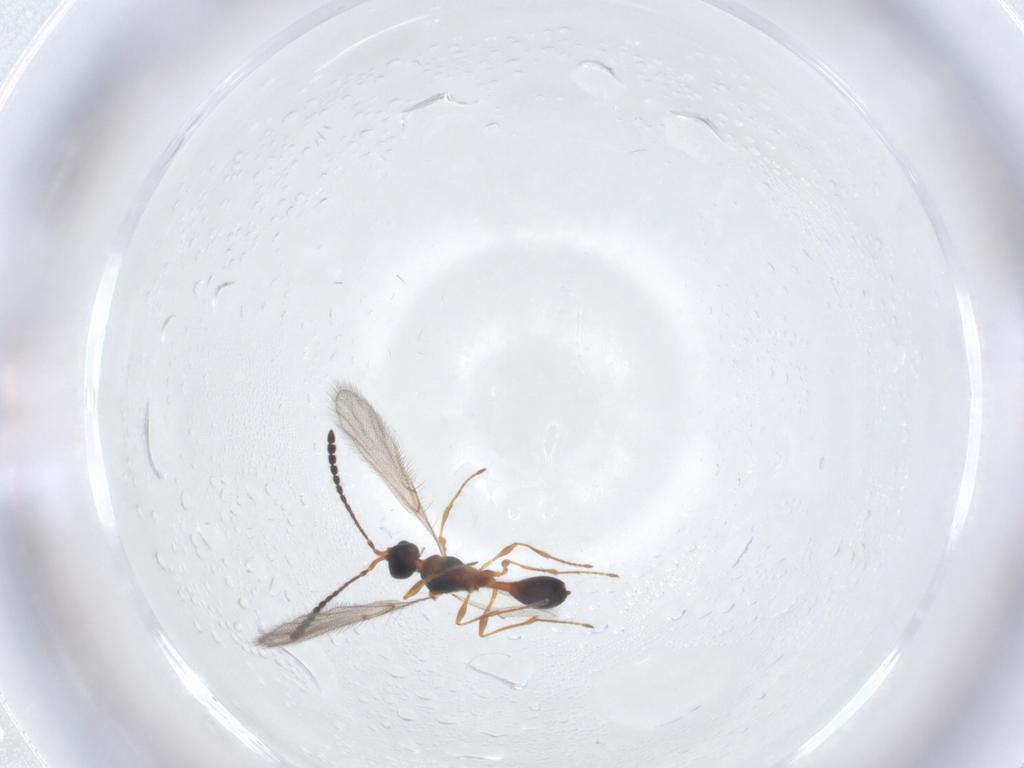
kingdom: Animalia
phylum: Arthropoda
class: Insecta
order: Hymenoptera
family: Diapriidae
